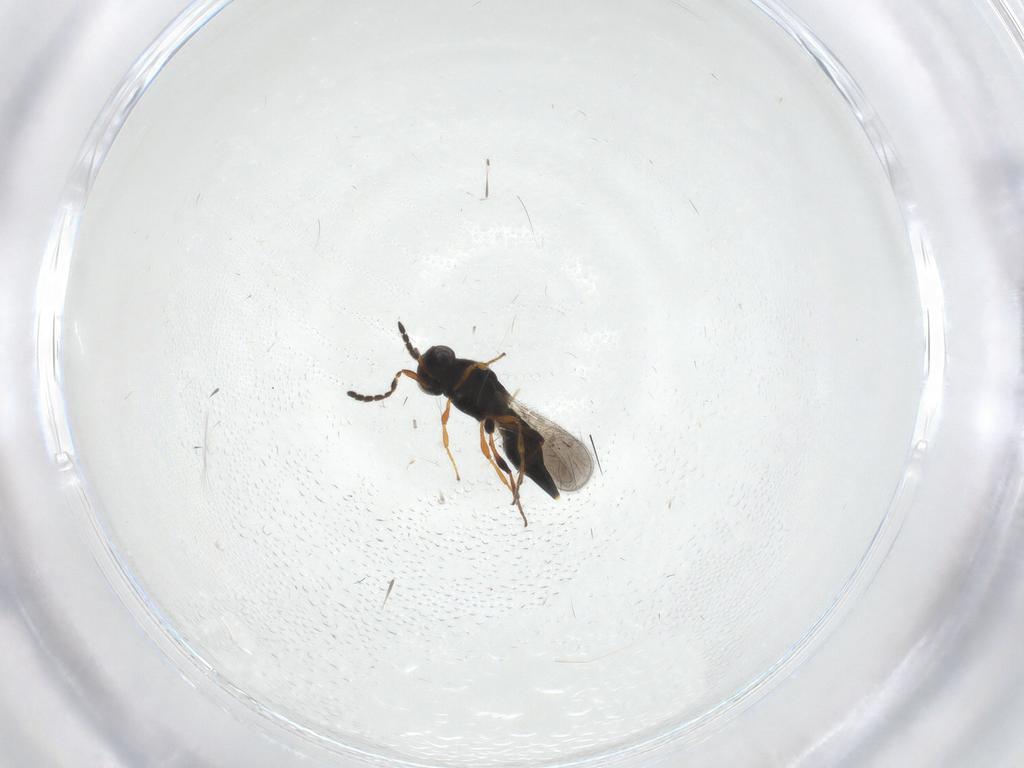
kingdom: Animalia
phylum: Arthropoda
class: Insecta
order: Hymenoptera
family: Platygastridae
